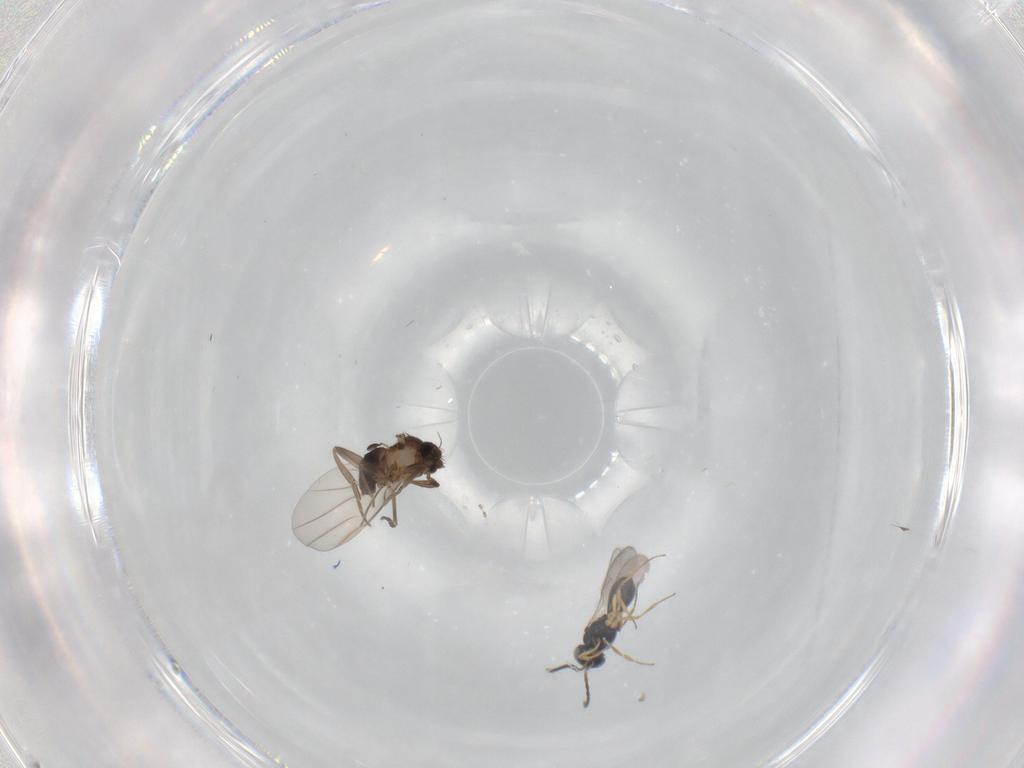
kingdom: Animalia
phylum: Arthropoda
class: Insecta
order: Diptera
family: Phoridae
